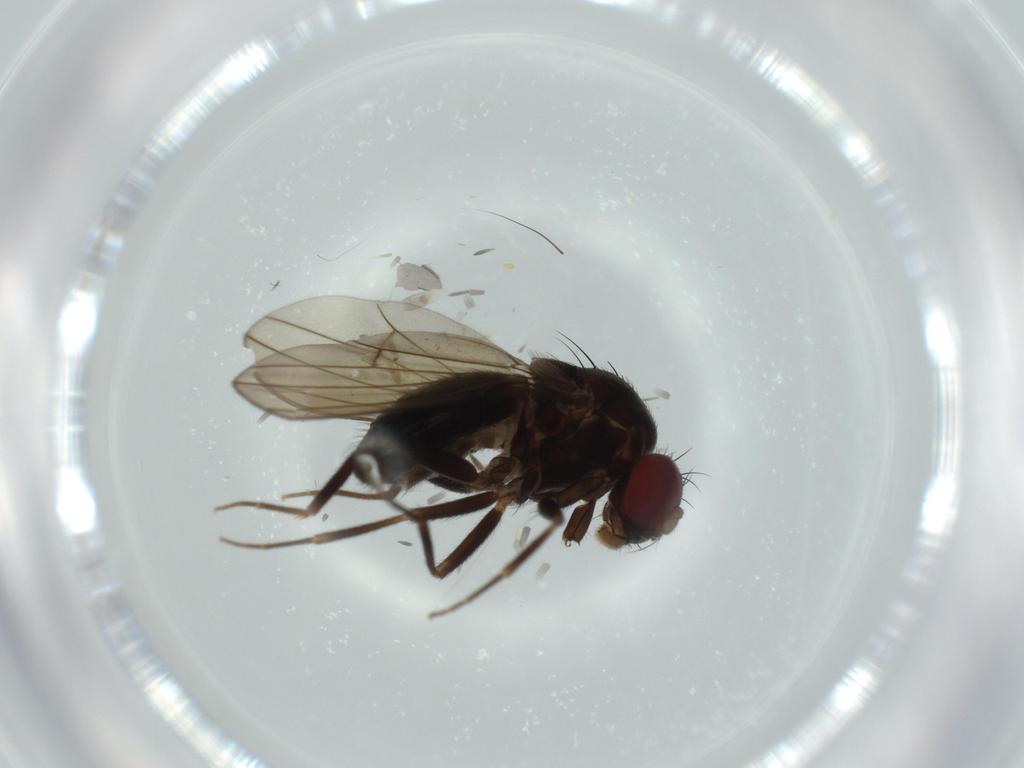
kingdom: Animalia
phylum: Arthropoda
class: Insecta
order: Diptera
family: Drosophilidae
